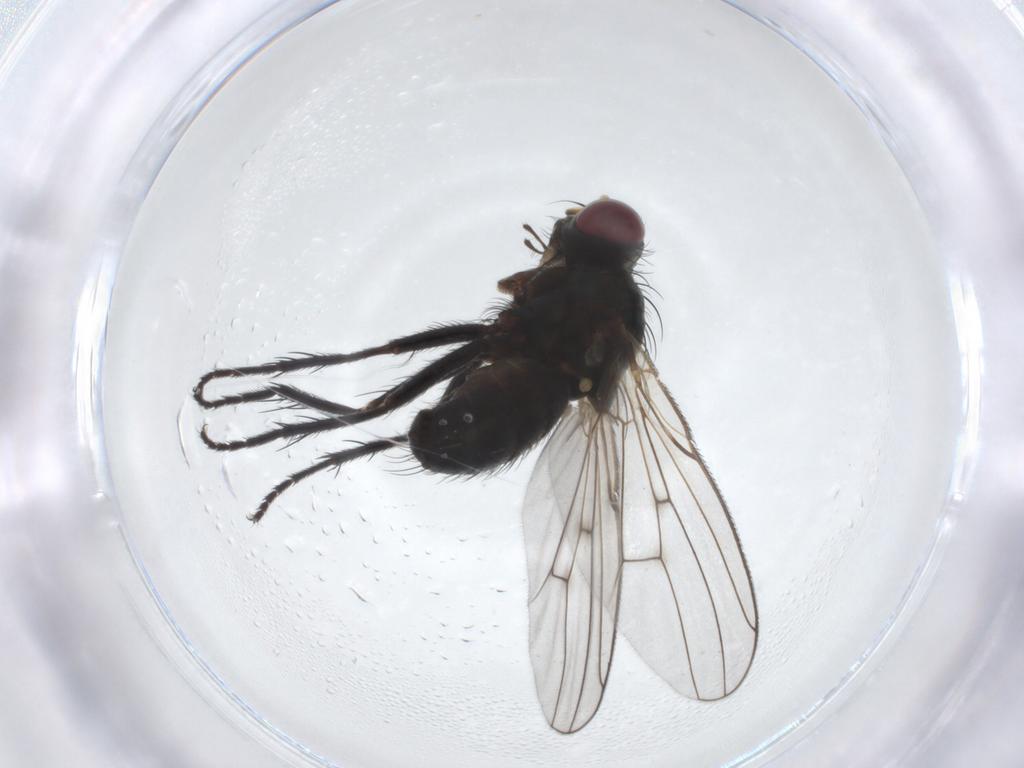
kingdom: Animalia
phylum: Arthropoda
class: Insecta
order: Diptera
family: Muscidae
